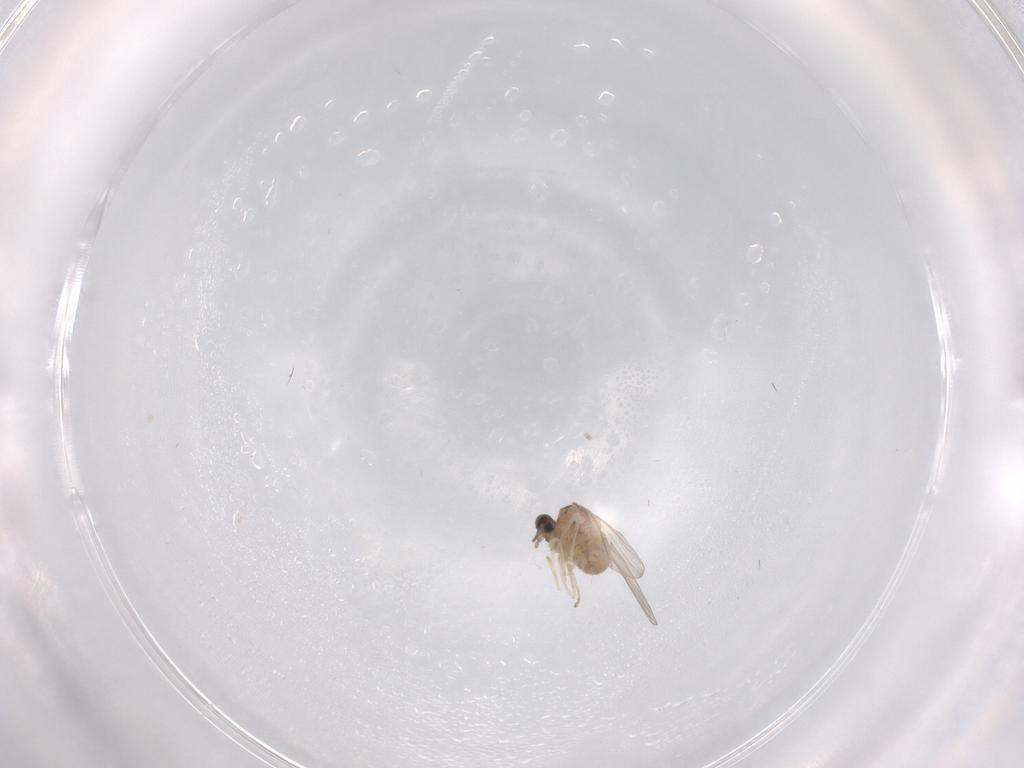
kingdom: Animalia
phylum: Arthropoda
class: Insecta
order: Diptera
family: Cecidomyiidae
